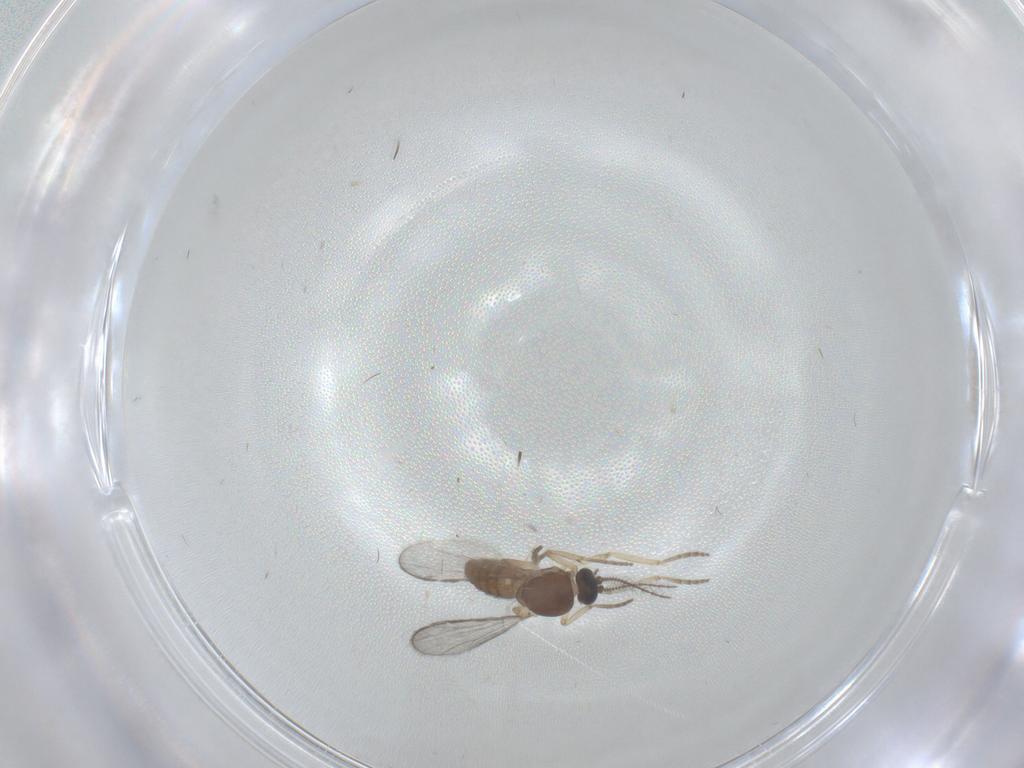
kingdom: Animalia
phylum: Arthropoda
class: Insecta
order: Diptera
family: Ceratopogonidae
